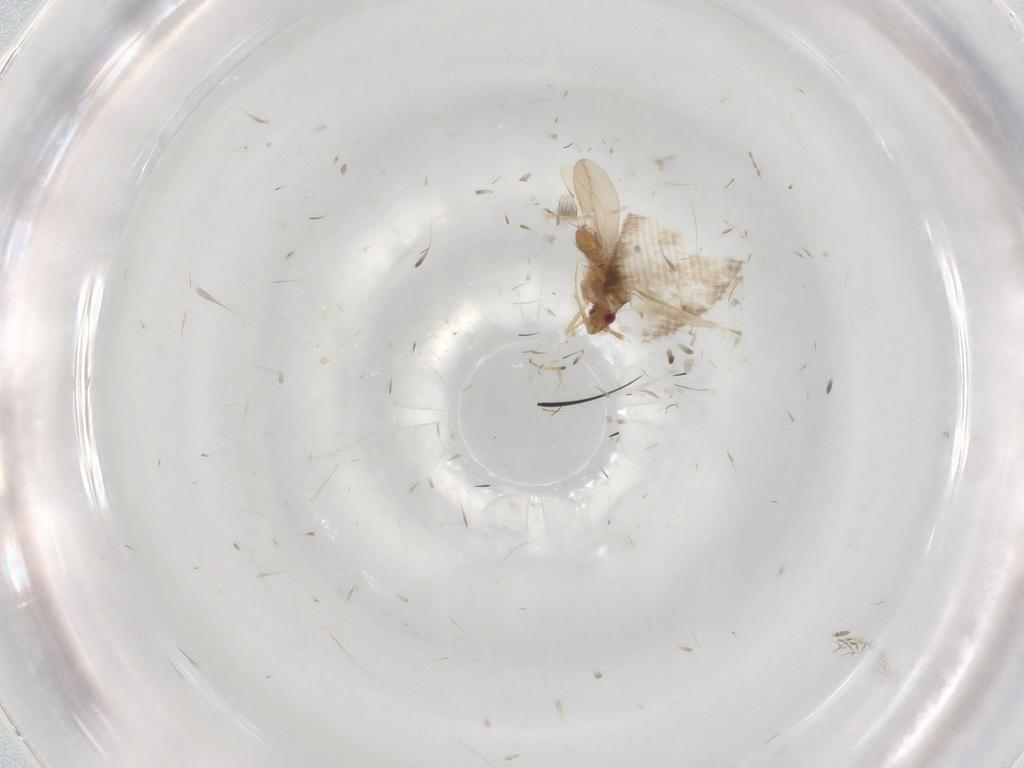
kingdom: Animalia
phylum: Arthropoda
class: Insecta
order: Hemiptera
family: Ceratocombidae
